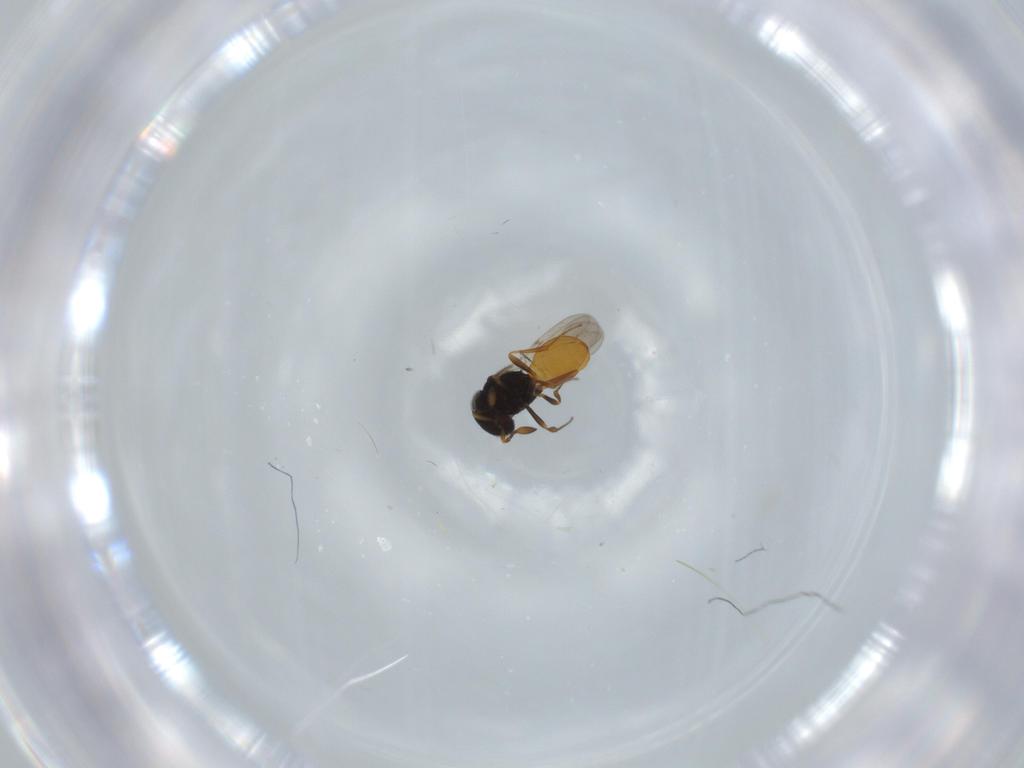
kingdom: Animalia
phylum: Arthropoda
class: Insecta
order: Hymenoptera
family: Scelionidae
